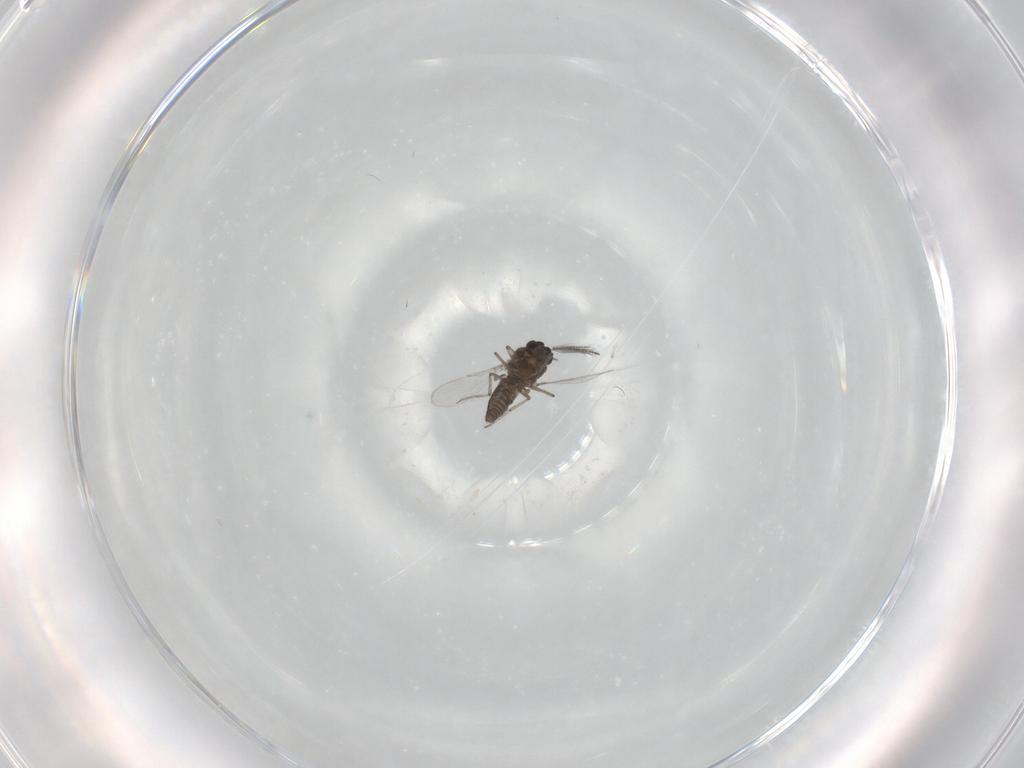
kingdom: Animalia
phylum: Arthropoda
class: Insecta
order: Diptera
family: Ceratopogonidae
